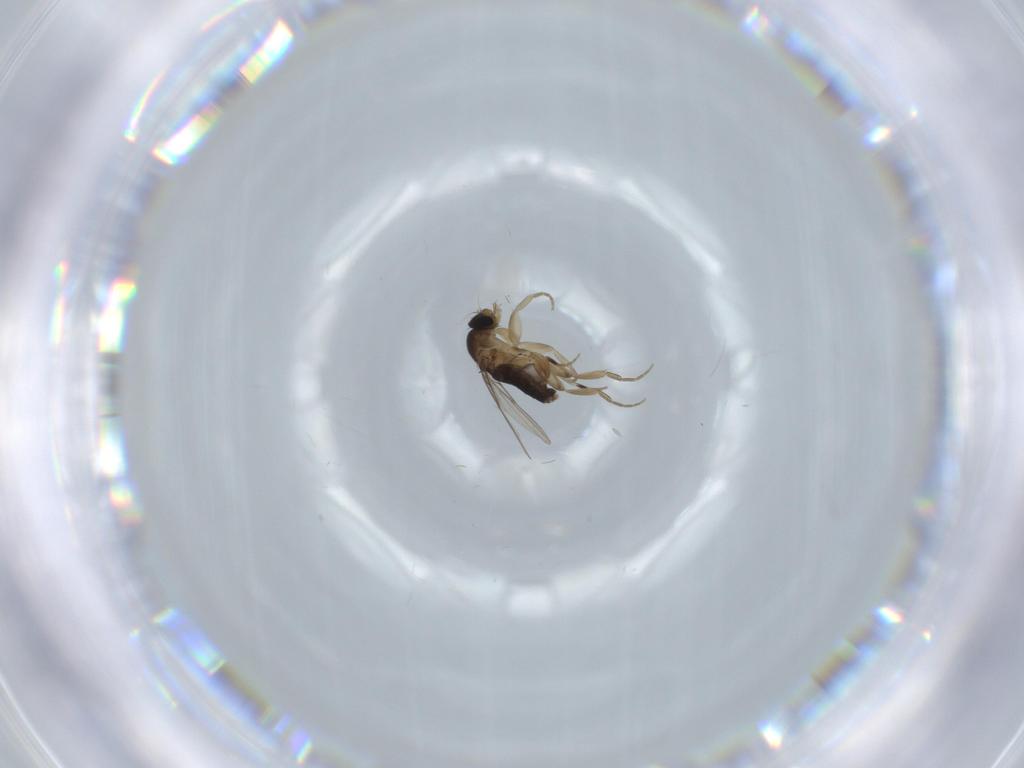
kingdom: Animalia
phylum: Arthropoda
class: Insecta
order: Diptera
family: Phoridae
